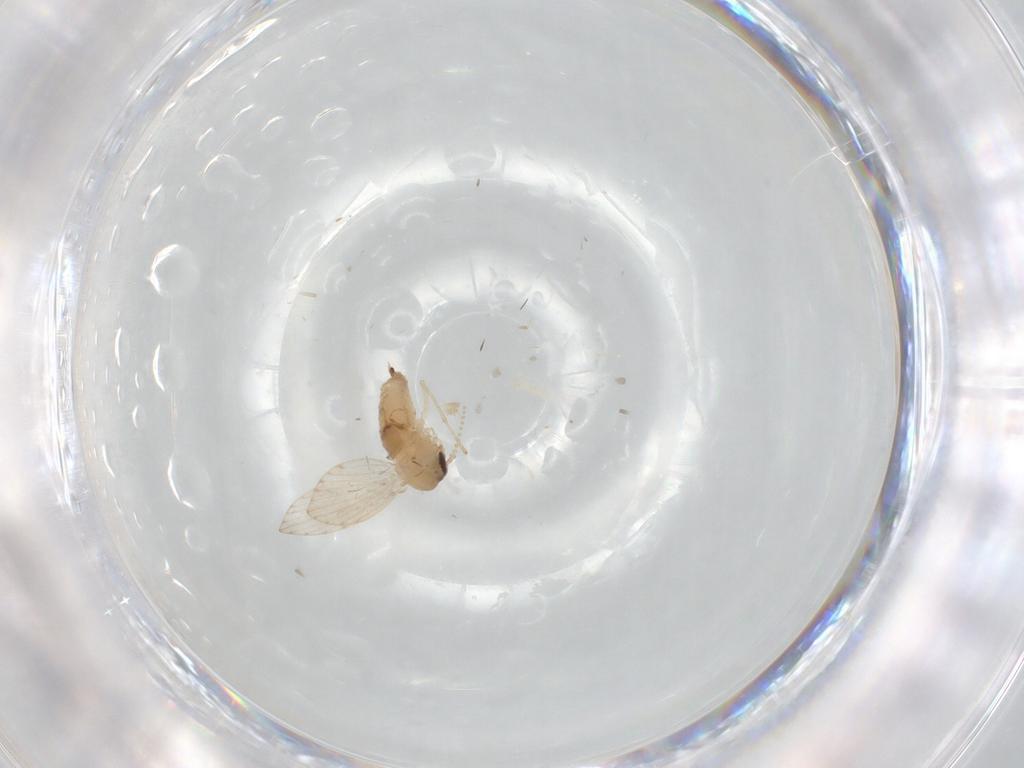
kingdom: Animalia
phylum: Arthropoda
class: Insecta
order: Diptera
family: Psychodidae
